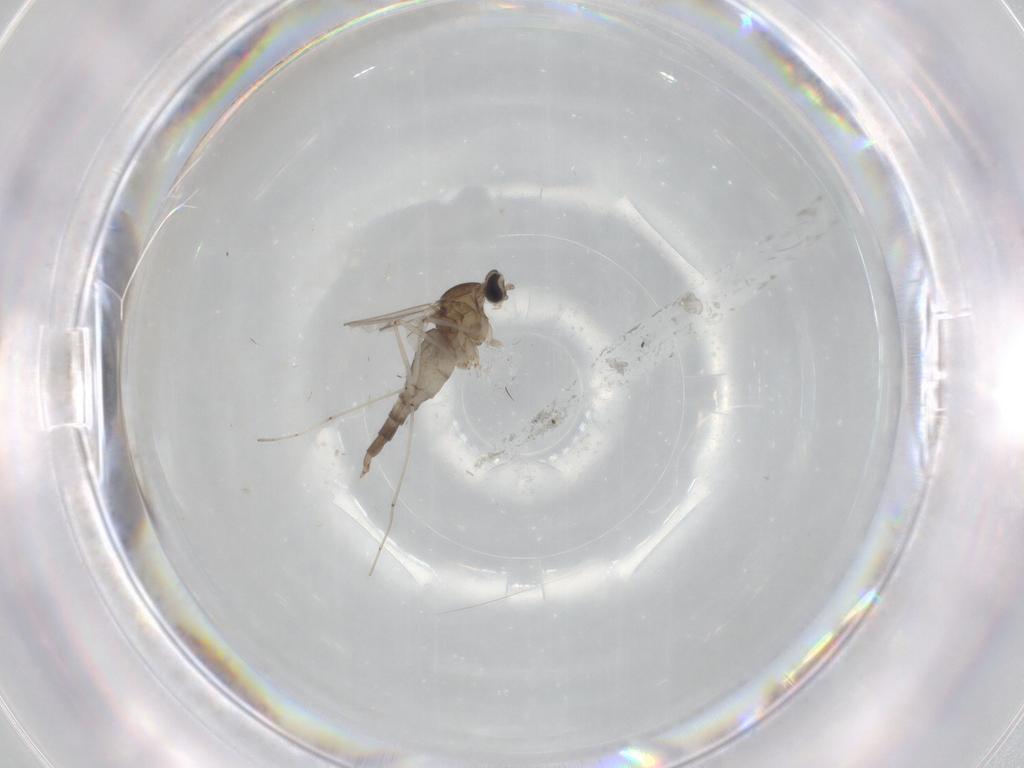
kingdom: Animalia
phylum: Arthropoda
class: Insecta
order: Diptera
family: Cecidomyiidae
